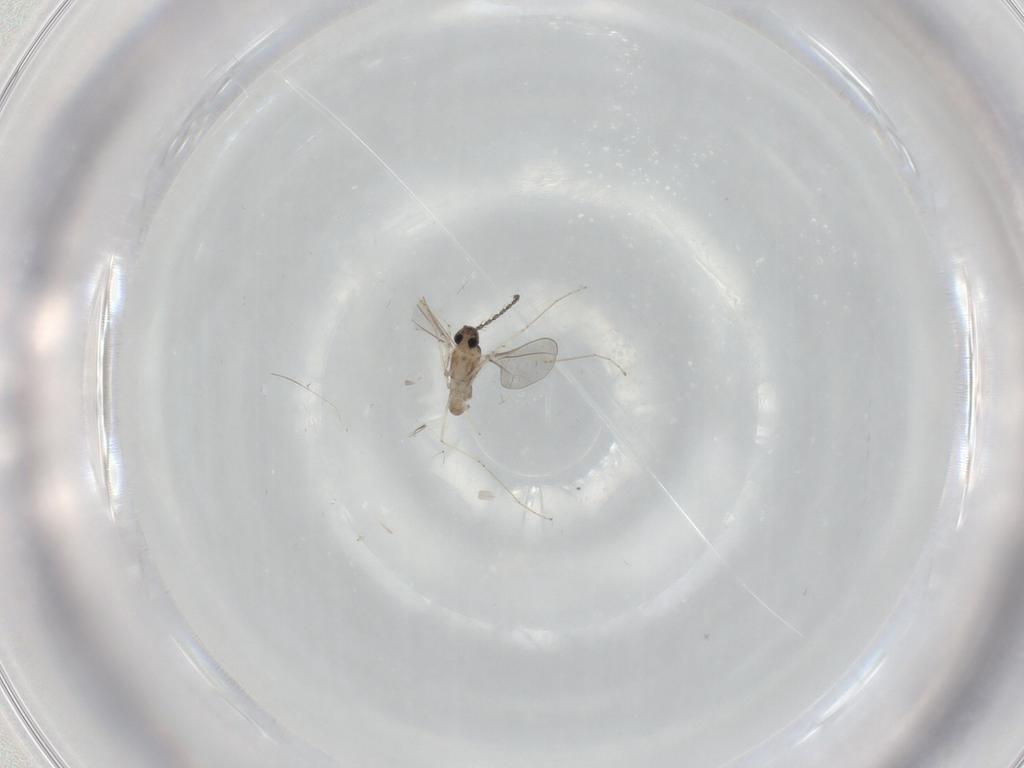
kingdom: Animalia
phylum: Arthropoda
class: Insecta
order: Diptera
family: Cecidomyiidae
